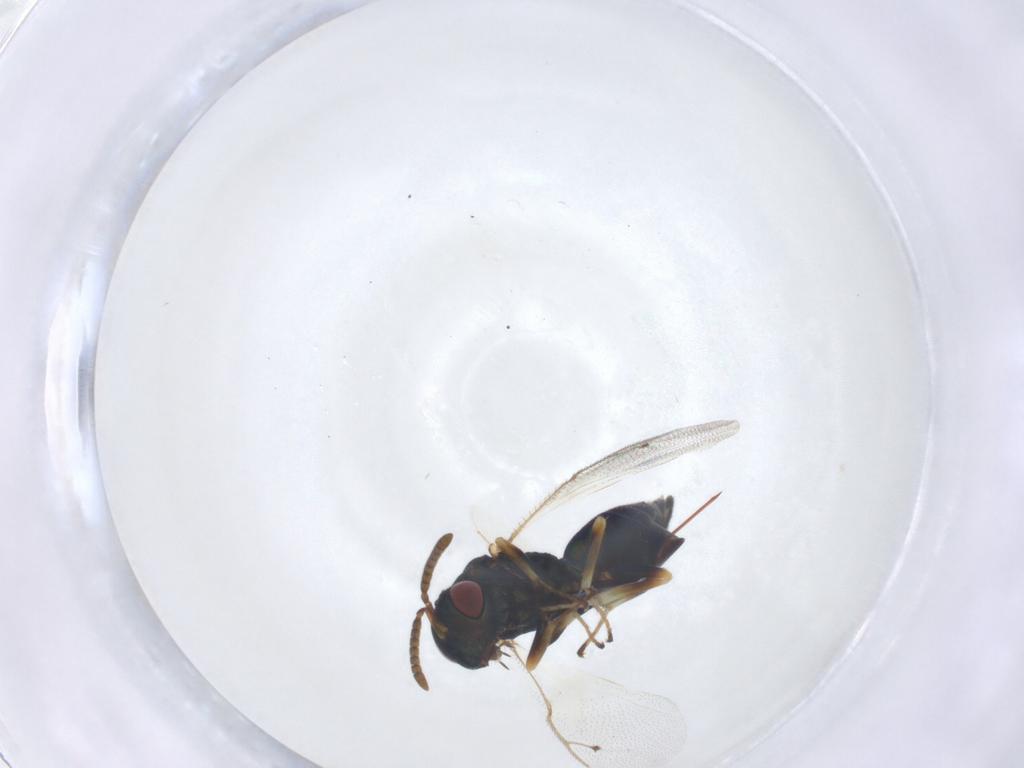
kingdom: Animalia
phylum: Arthropoda
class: Insecta
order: Hymenoptera
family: Pteromalidae
